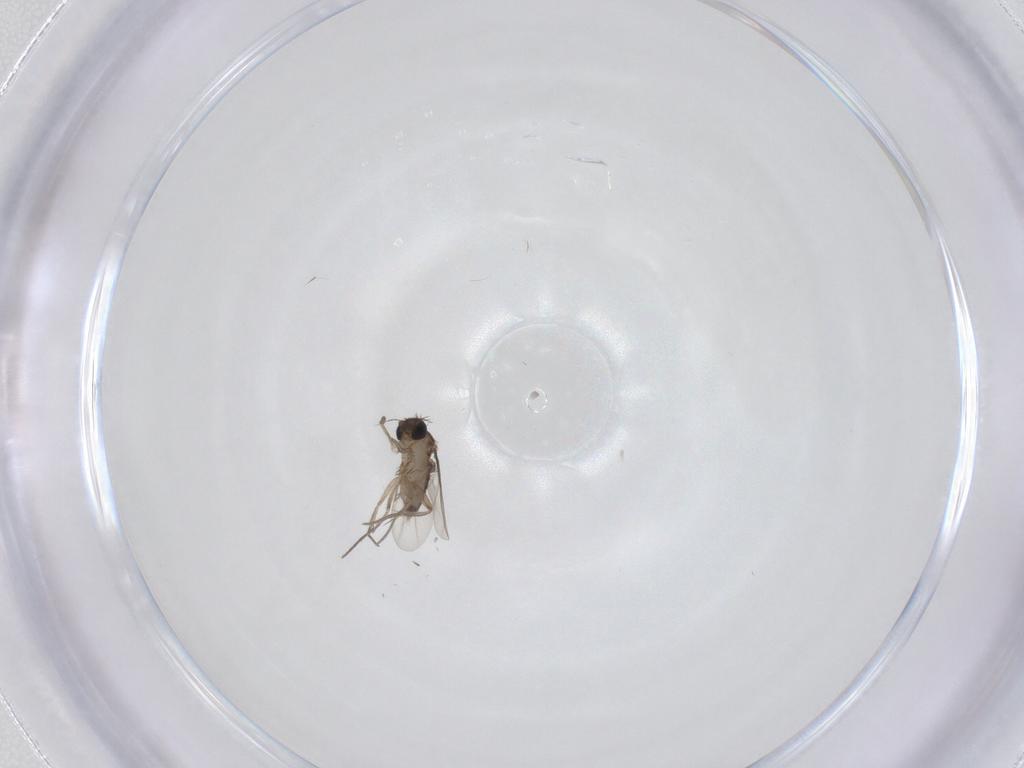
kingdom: Animalia
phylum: Arthropoda
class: Insecta
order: Diptera
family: Phoridae
